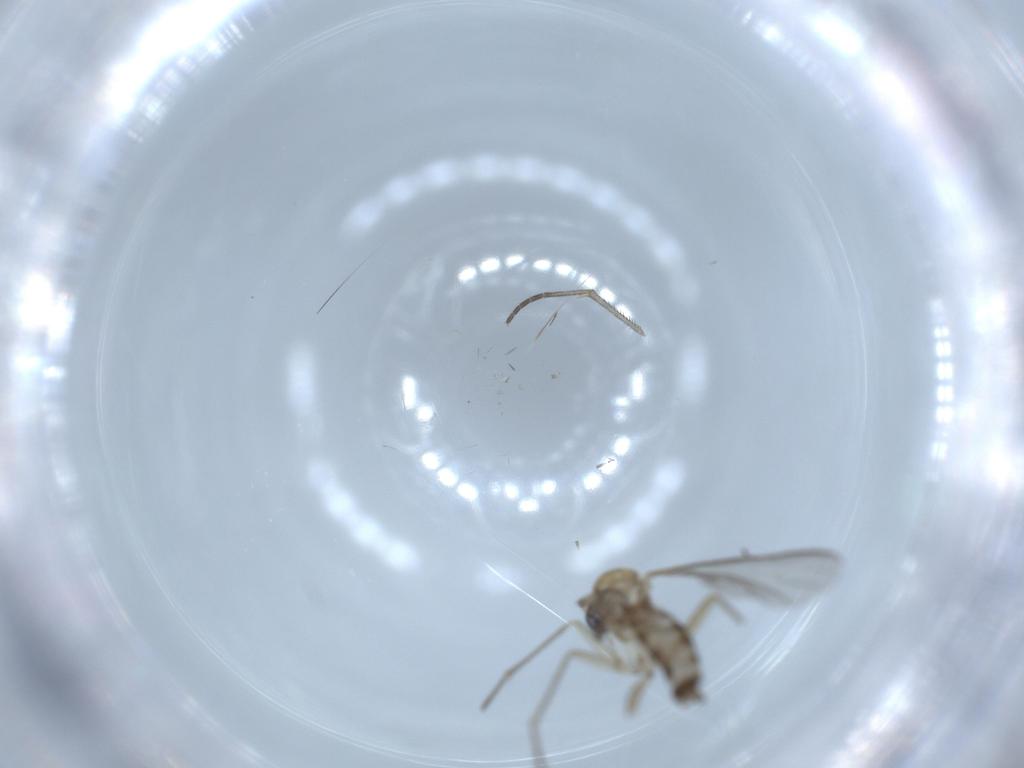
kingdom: Animalia
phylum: Arthropoda
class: Insecta
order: Diptera
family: Sciaridae
